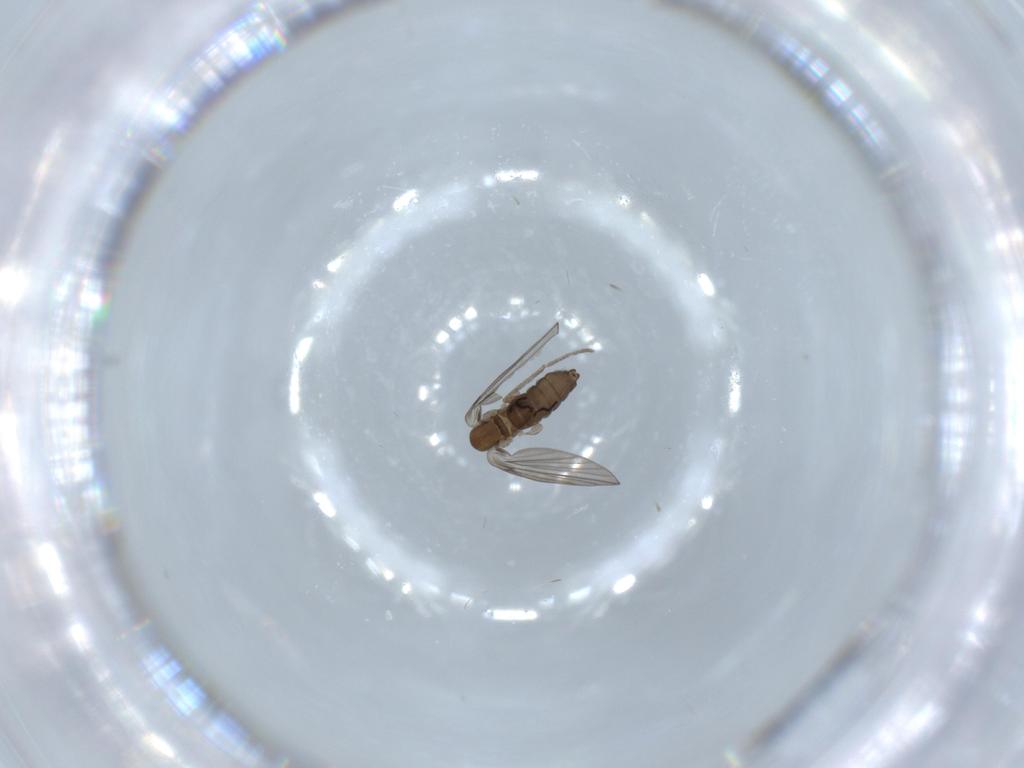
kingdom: Animalia
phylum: Arthropoda
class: Insecta
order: Diptera
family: Psychodidae
